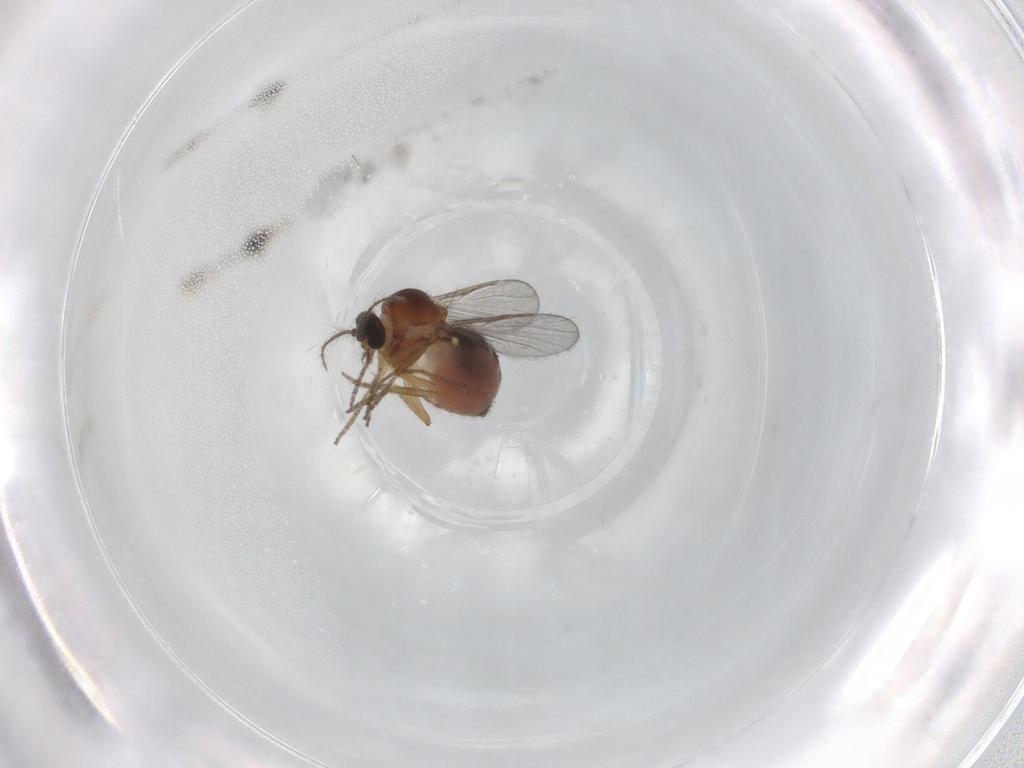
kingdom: Animalia
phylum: Arthropoda
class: Insecta
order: Diptera
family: Ceratopogonidae
